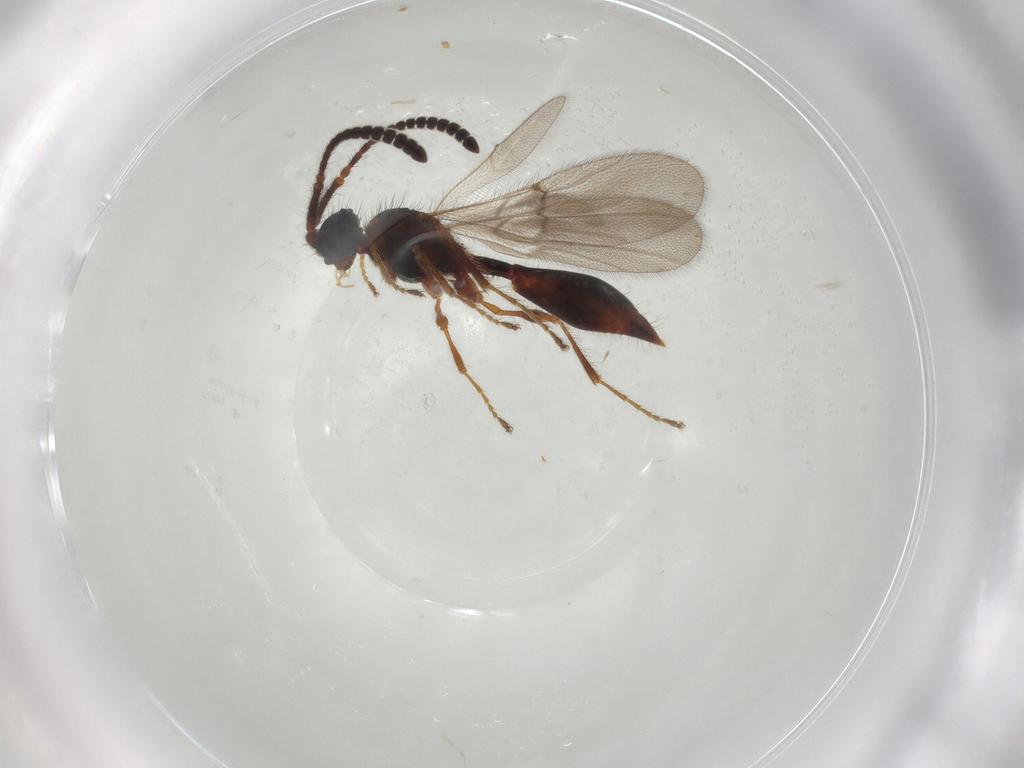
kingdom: Animalia
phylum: Arthropoda
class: Insecta
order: Hymenoptera
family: Diapriidae
